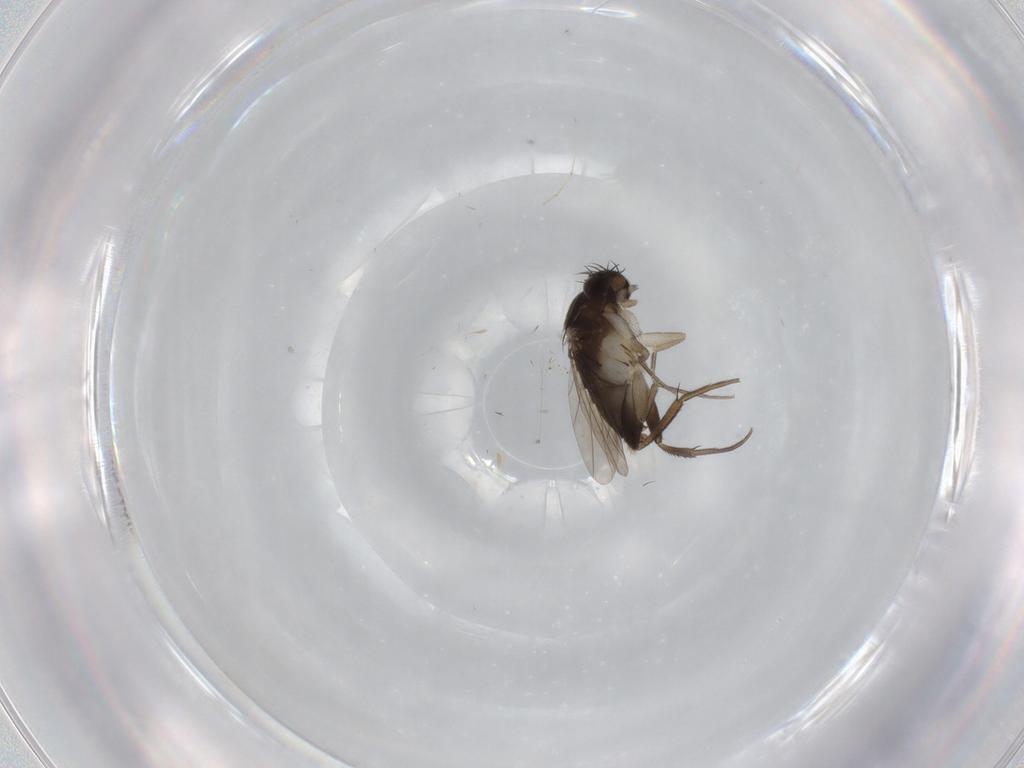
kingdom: Animalia
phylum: Arthropoda
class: Insecta
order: Diptera
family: Phoridae
